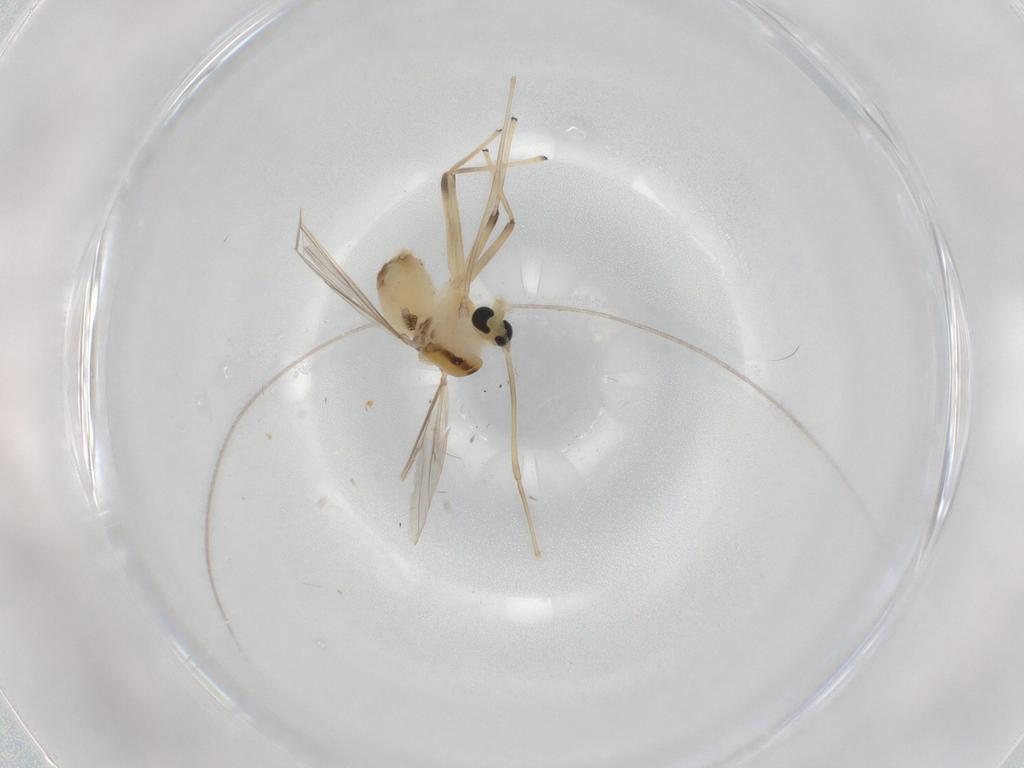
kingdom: Animalia
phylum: Arthropoda
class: Insecta
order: Diptera
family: Chironomidae
